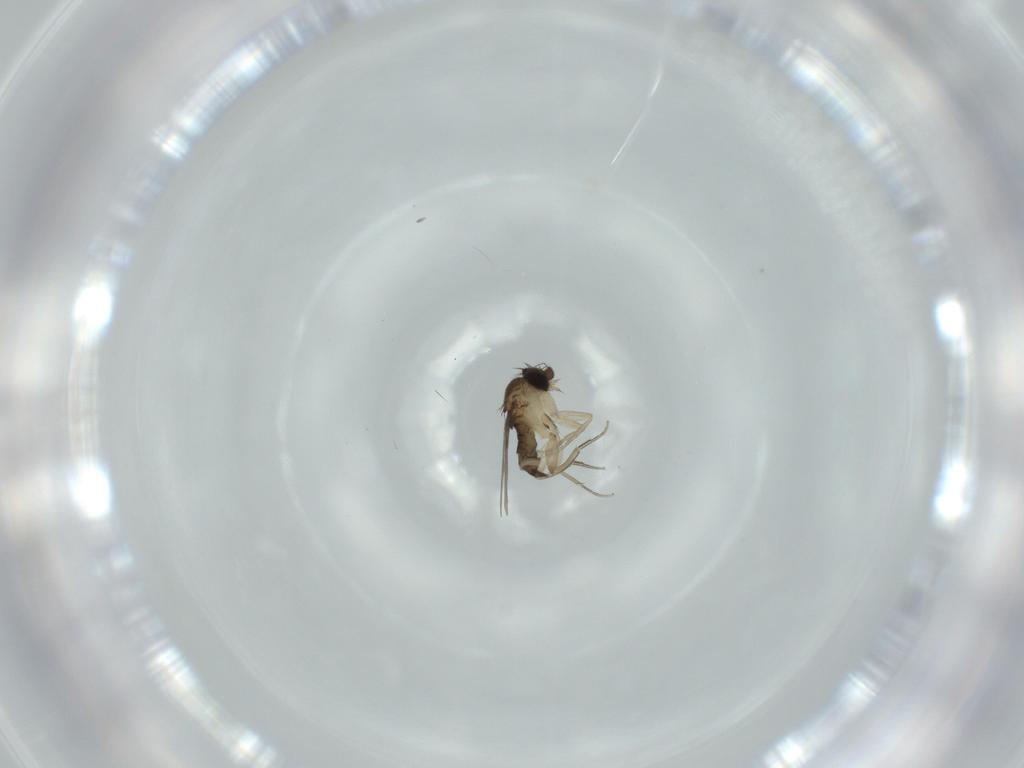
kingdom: Animalia
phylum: Arthropoda
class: Insecta
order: Diptera
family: Phoridae
